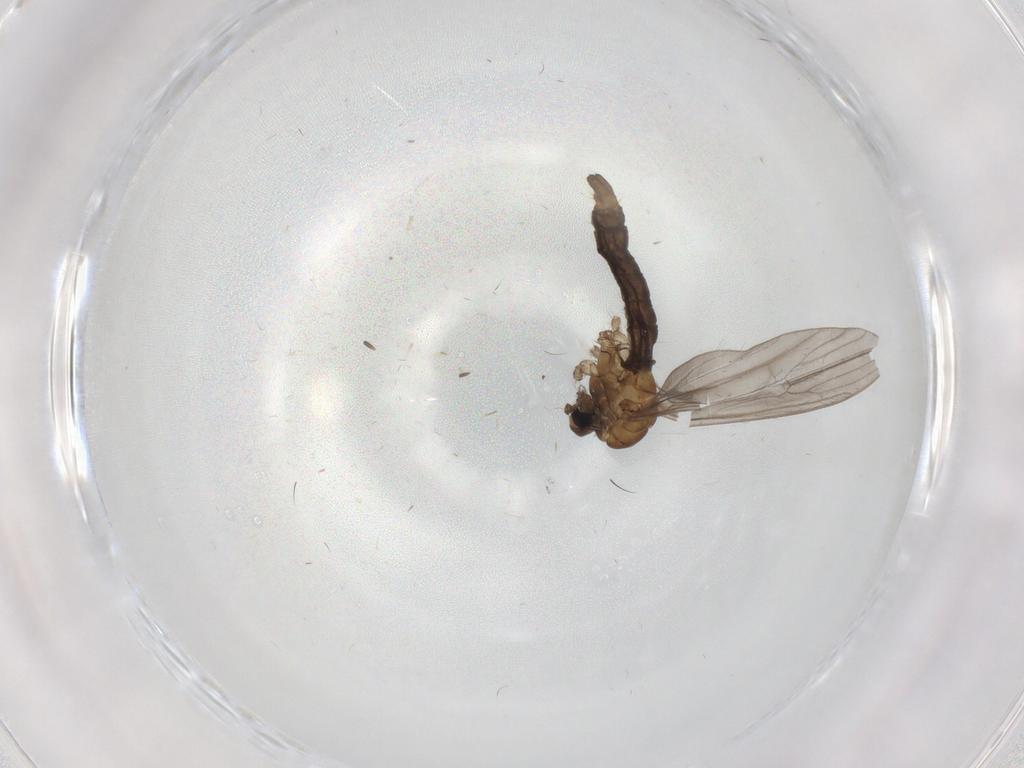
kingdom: Animalia
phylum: Arthropoda
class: Insecta
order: Diptera
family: Limoniidae
